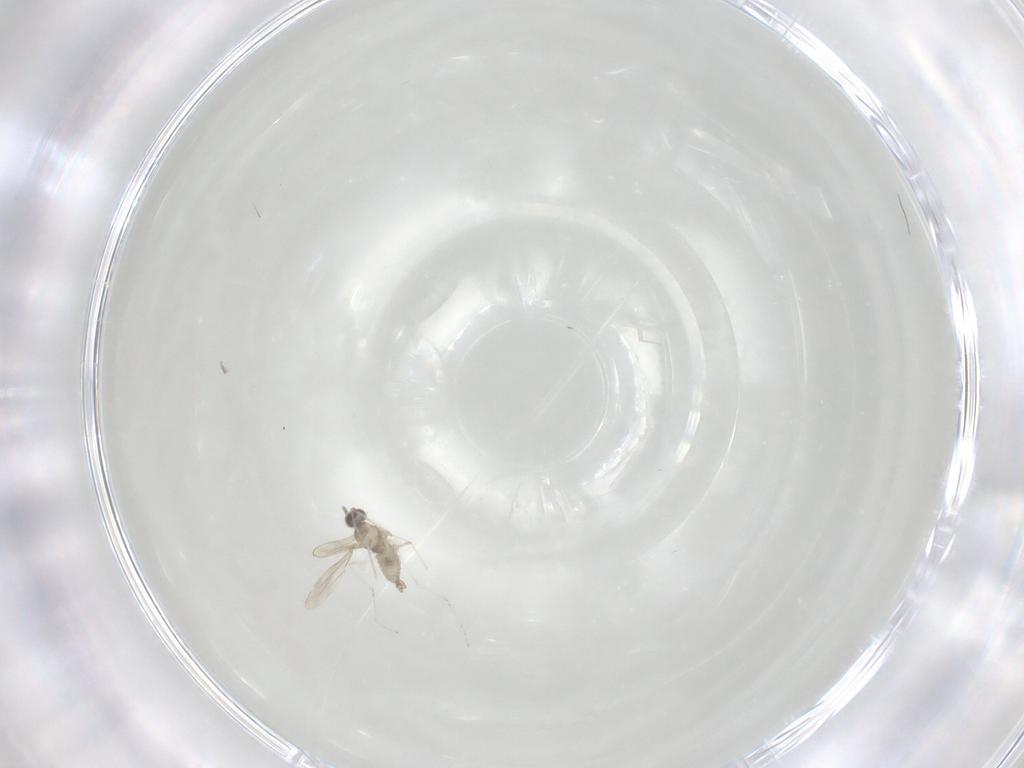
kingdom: Animalia
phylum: Arthropoda
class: Insecta
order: Diptera
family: Cecidomyiidae
